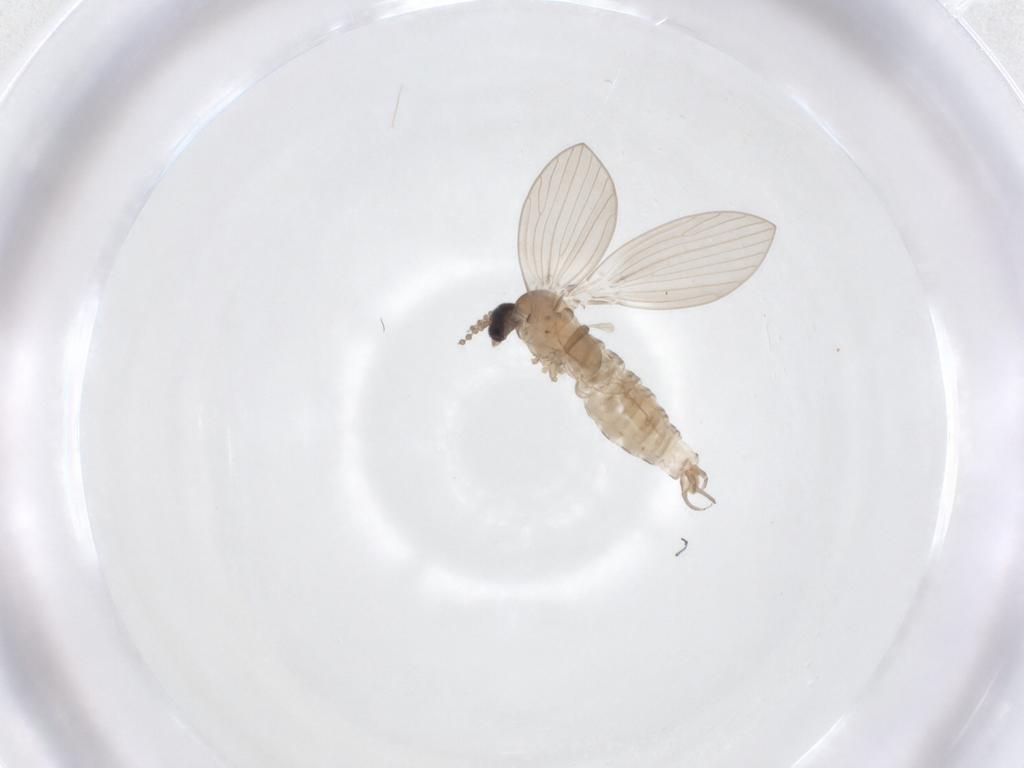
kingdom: Animalia
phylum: Arthropoda
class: Insecta
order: Diptera
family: Psychodidae
